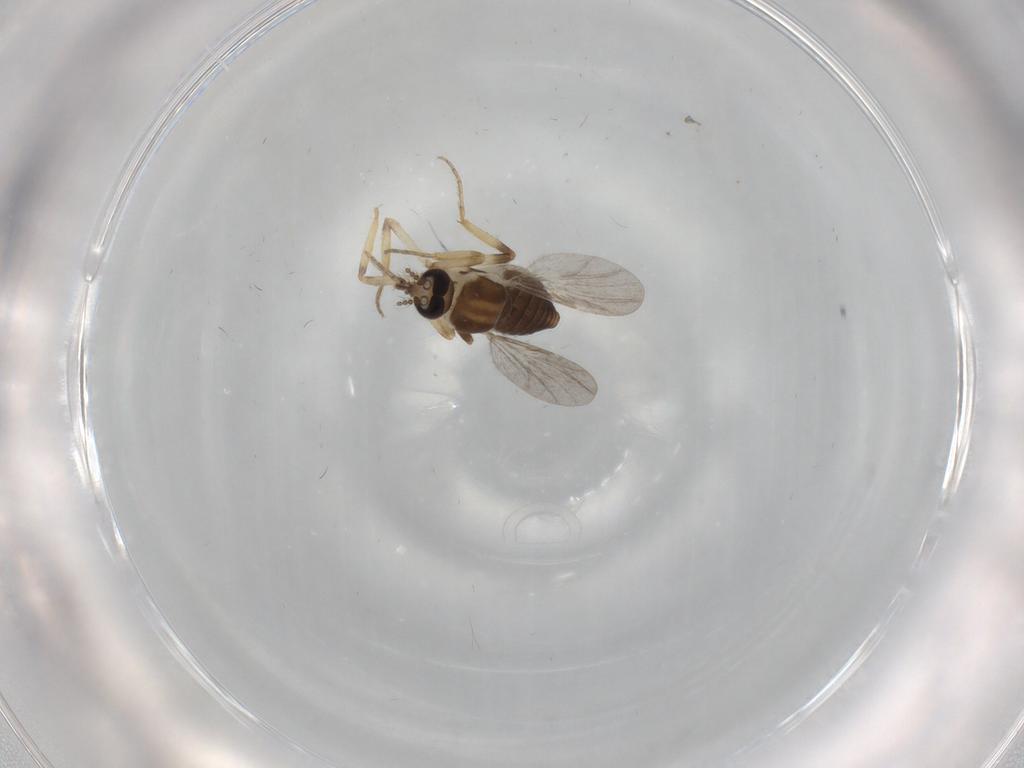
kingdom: Animalia
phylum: Arthropoda
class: Insecta
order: Diptera
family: Ceratopogonidae
